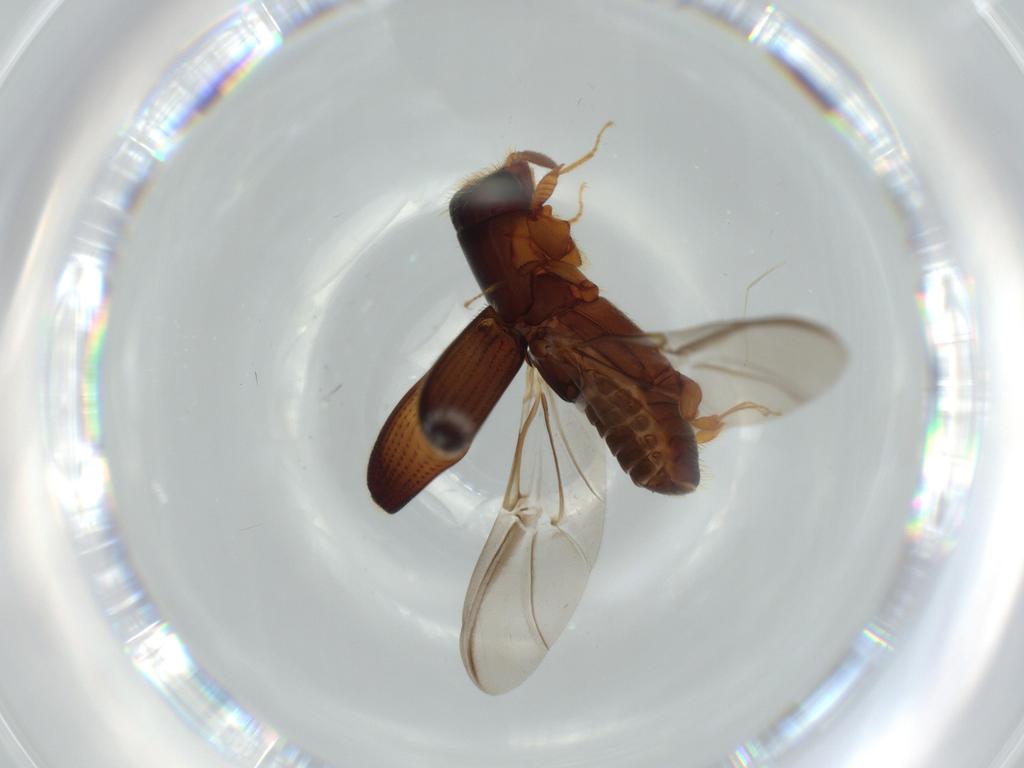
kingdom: Animalia
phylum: Arthropoda
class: Insecta
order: Coleoptera
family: Curculionidae
